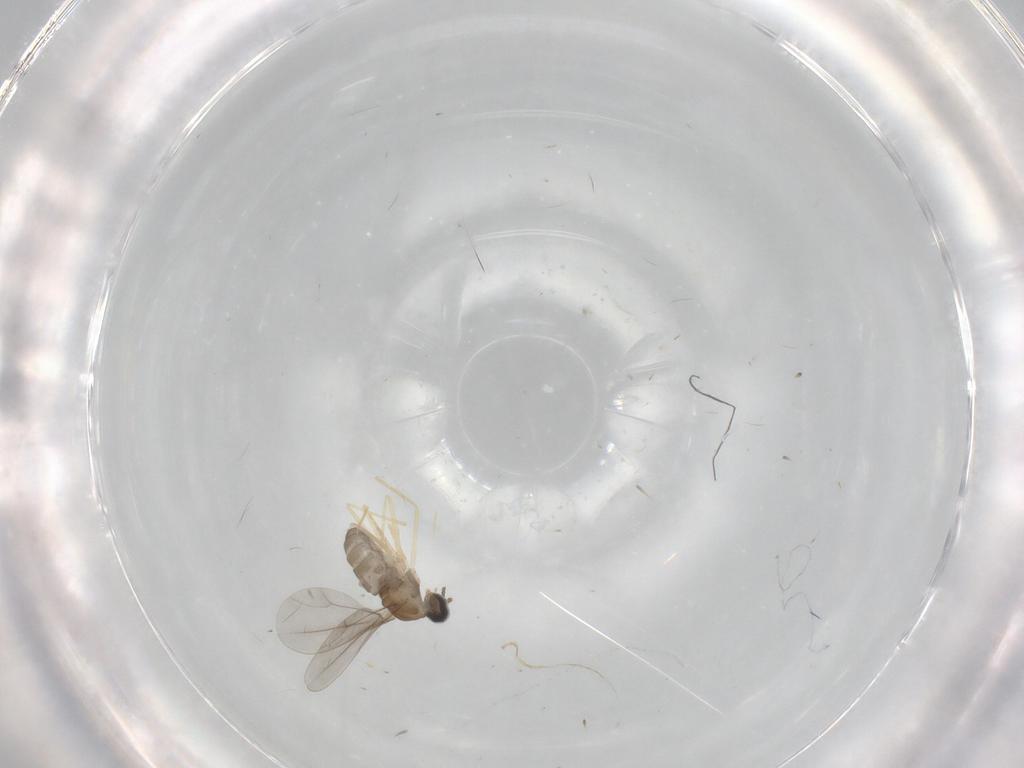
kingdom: Animalia
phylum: Arthropoda
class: Insecta
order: Diptera
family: Cecidomyiidae
